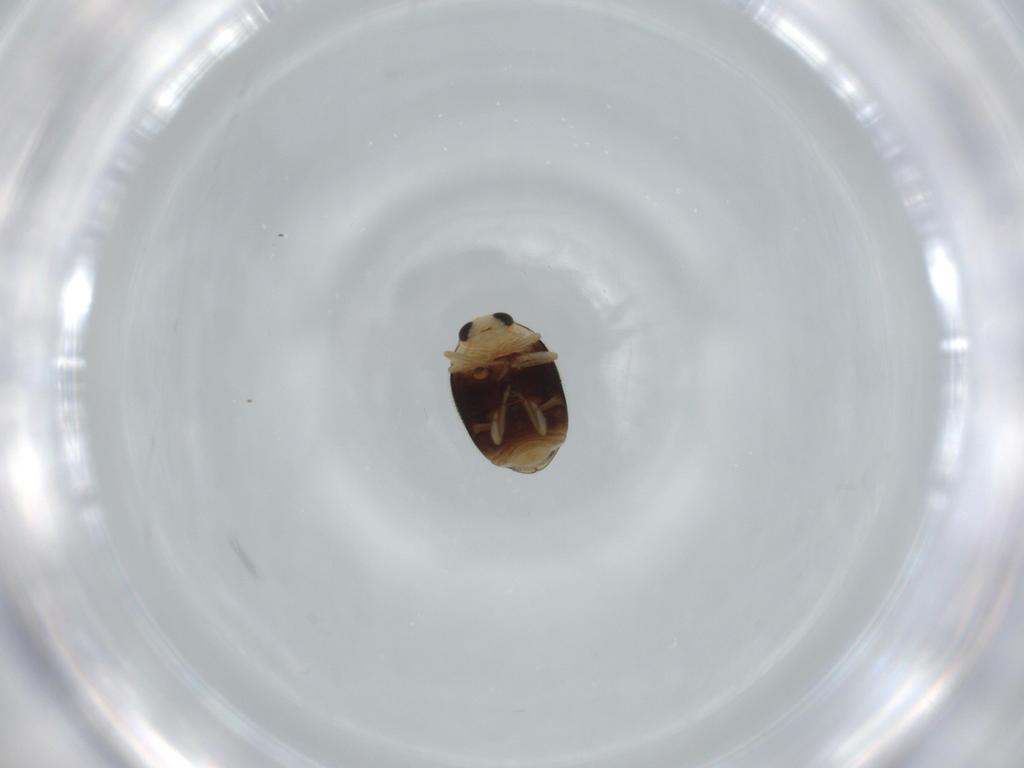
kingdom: Animalia
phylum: Arthropoda
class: Insecta
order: Coleoptera
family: Coccinellidae
